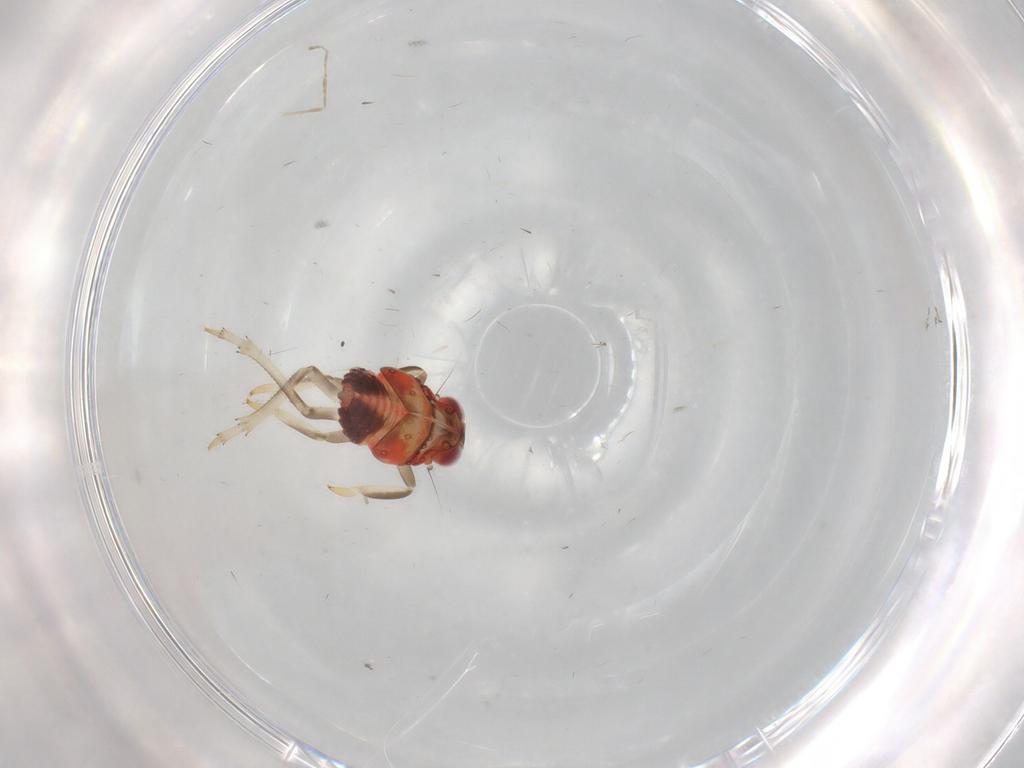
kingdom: Animalia
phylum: Arthropoda
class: Insecta
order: Hemiptera
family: Nogodinidae
